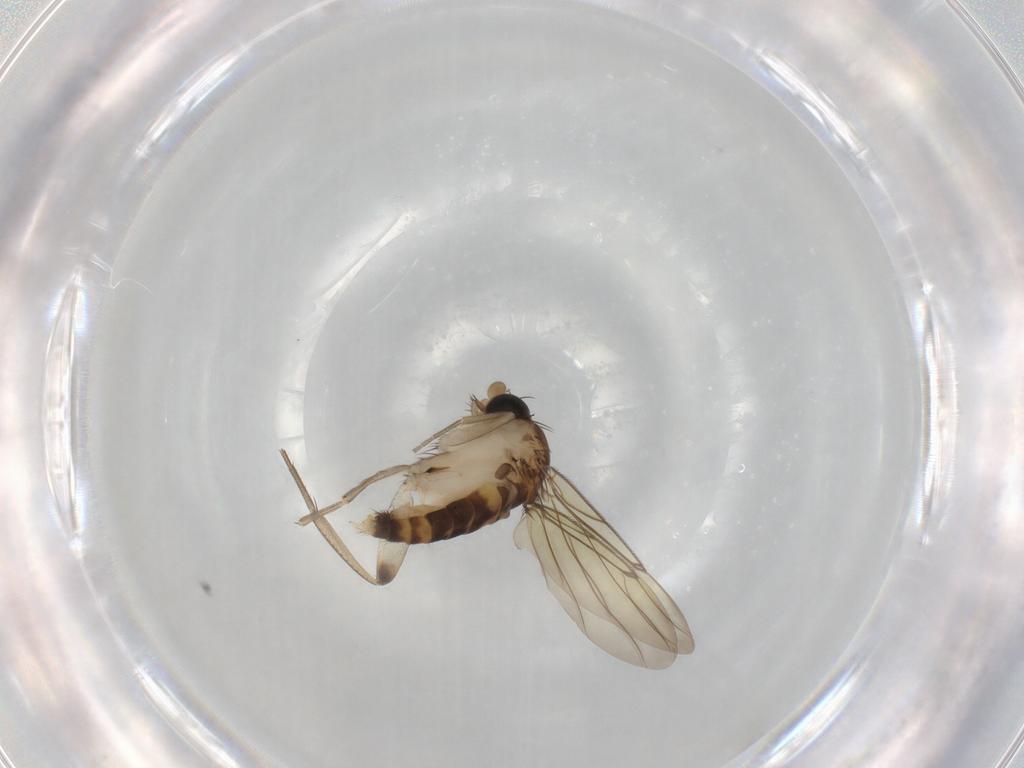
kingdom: Animalia
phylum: Arthropoda
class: Insecta
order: Diptera
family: Phoridae
